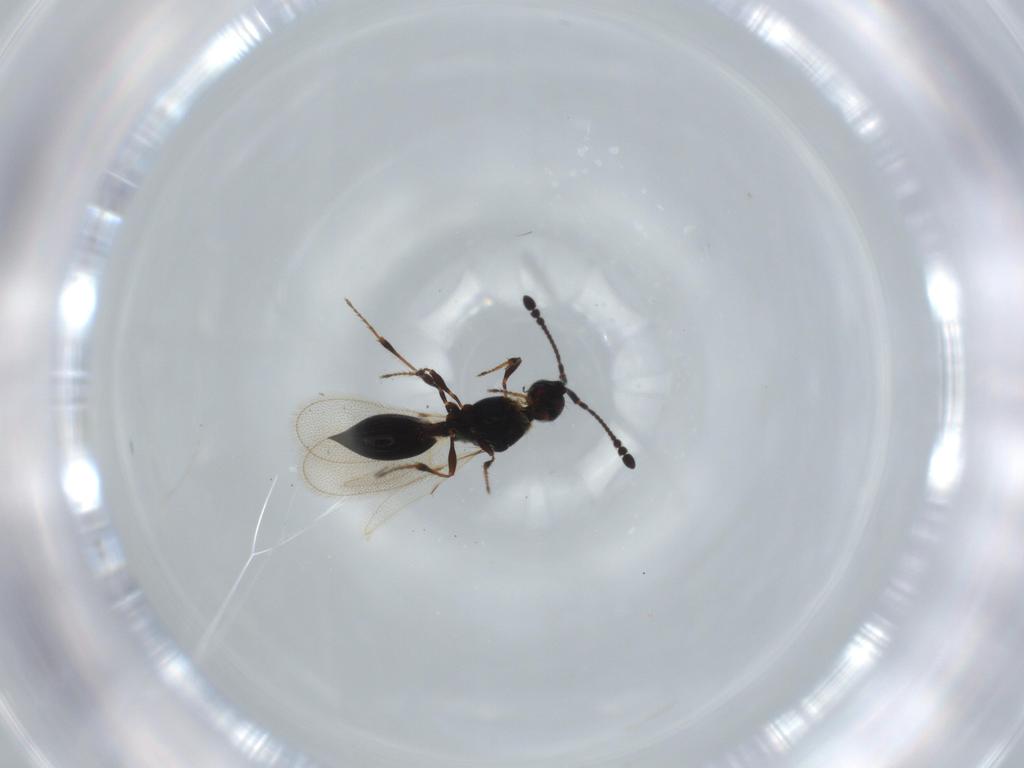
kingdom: Animalia
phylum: Arthropoda
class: Insecta
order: Hymenoptera
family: Diapriidae
